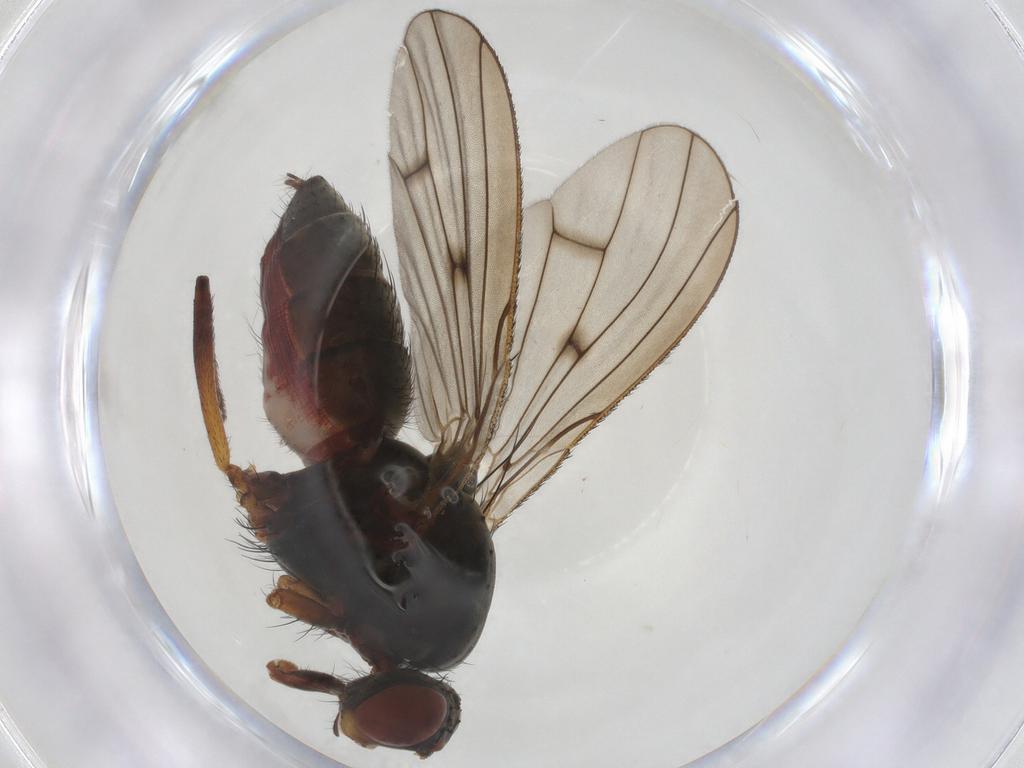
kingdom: Animalia
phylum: Arthropoda
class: Insecta
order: Diptera
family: Anthomyiidae
